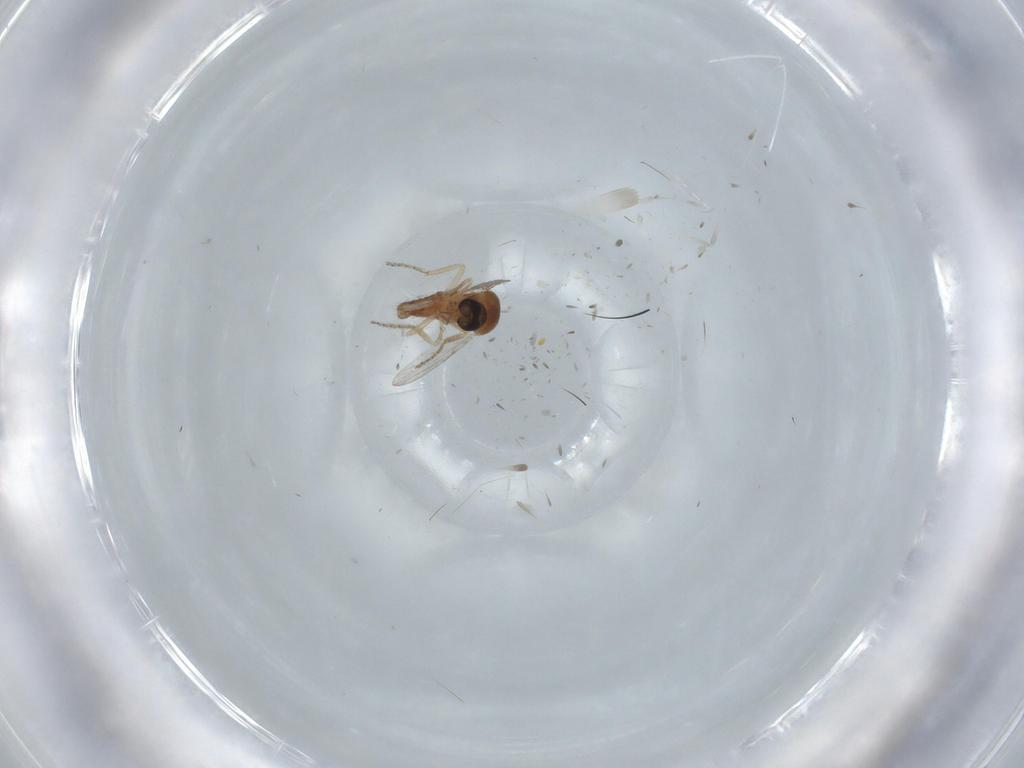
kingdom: Animalia
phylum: Arthropoda
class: Insecta
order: Diptera
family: Ceratopogonidae
